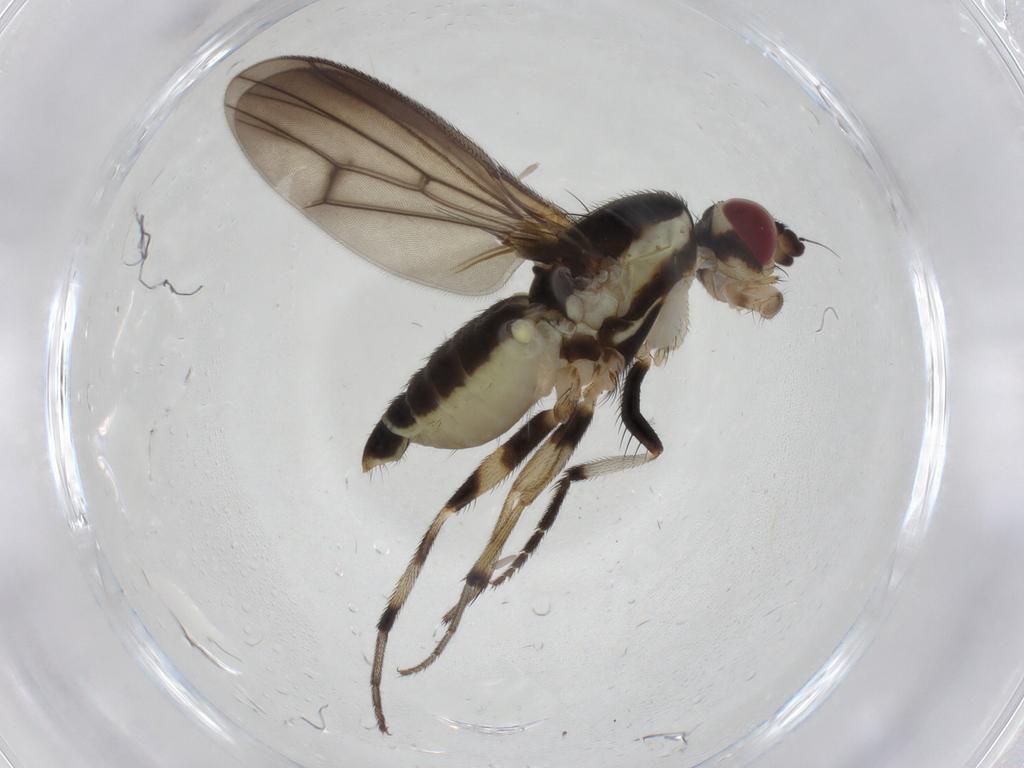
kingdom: Animalia
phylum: Arthropoda
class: Insecta
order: Diptera
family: Pseudopomyzidae
